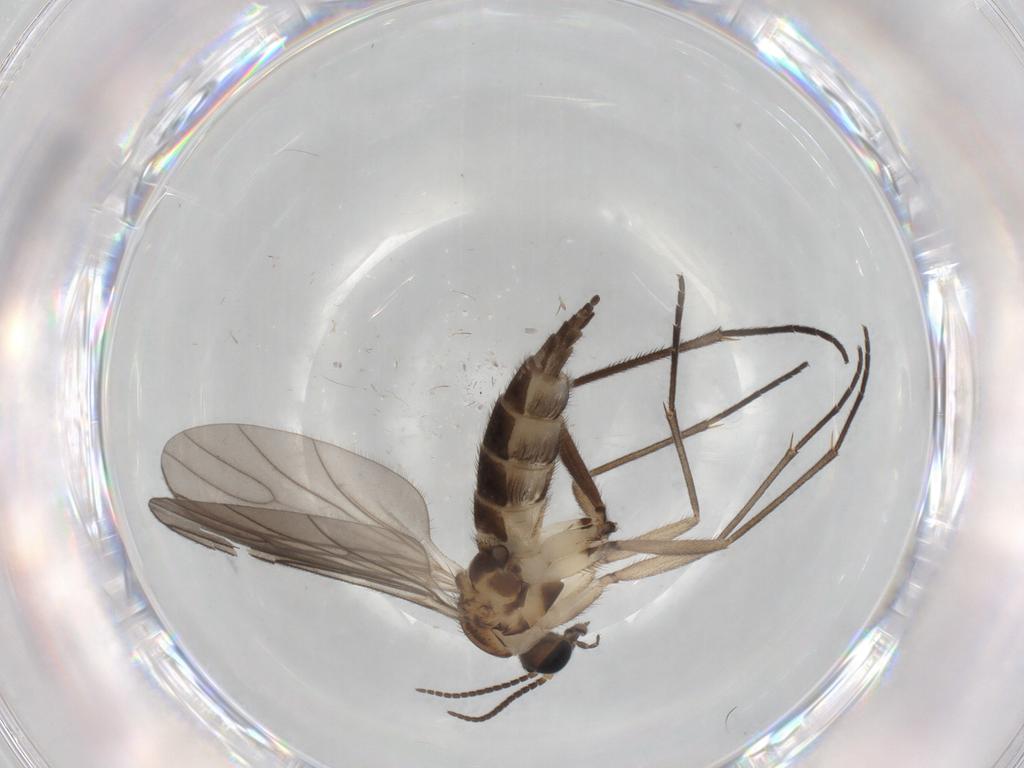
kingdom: Animalia
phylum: Arthropoda
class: Insecta
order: Diptera
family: Sciaridae
